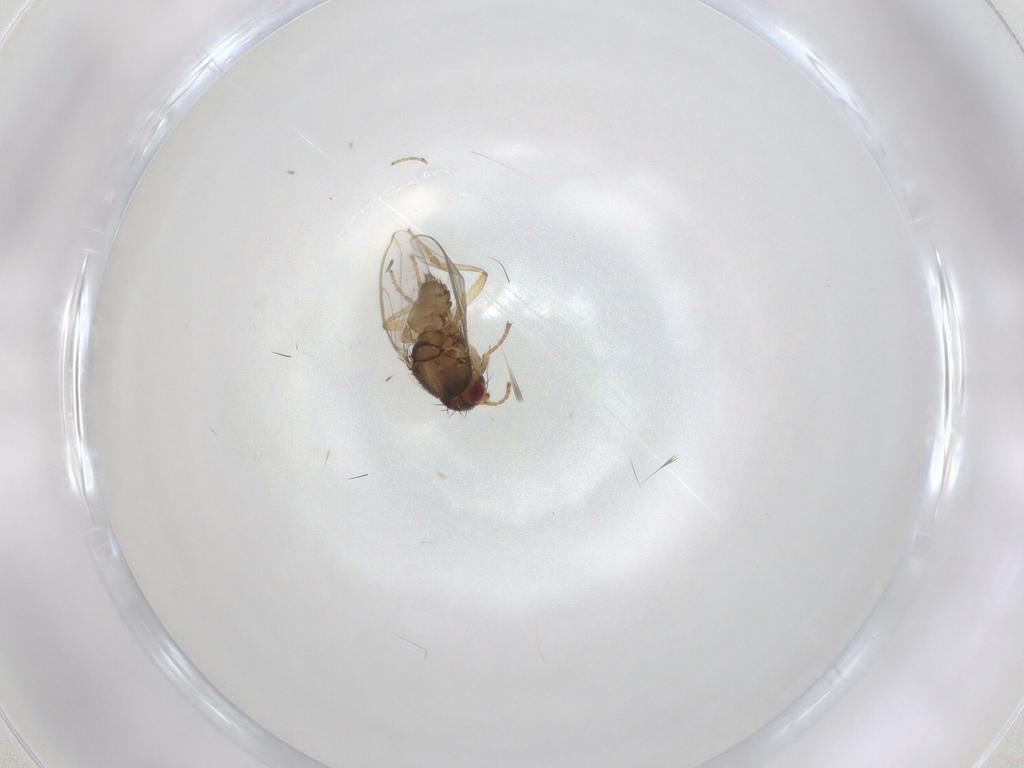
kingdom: Animalia
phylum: Arthropoda
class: Insecta
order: Diptera
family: Sphaeroceridae
